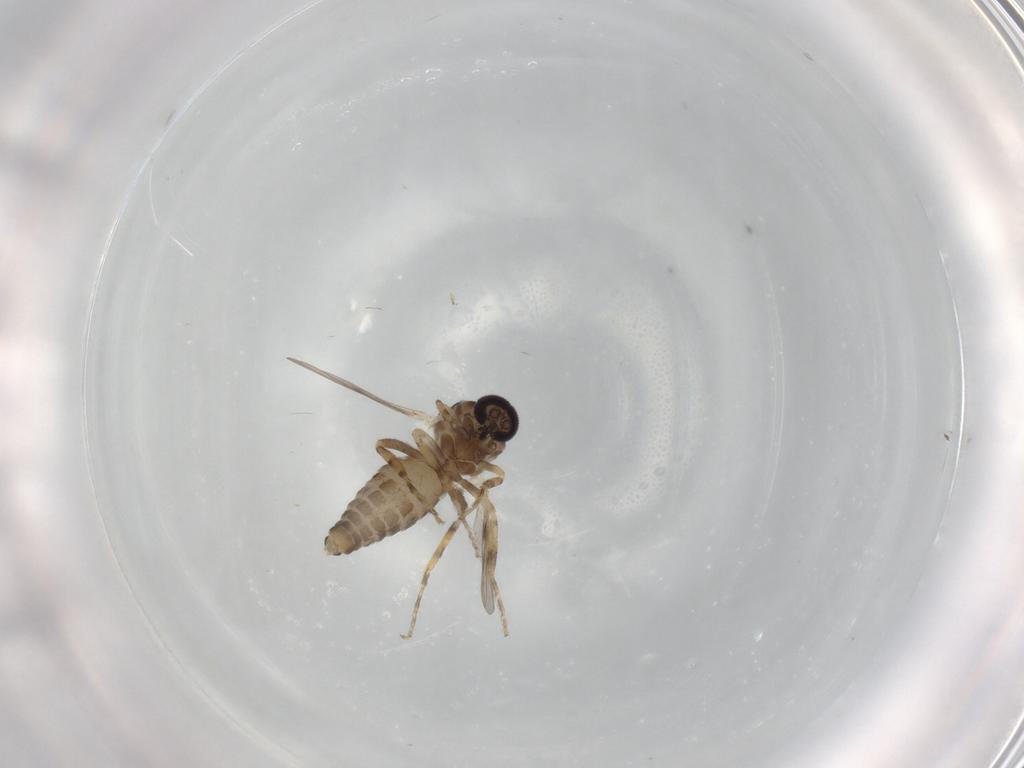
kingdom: Animalia
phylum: Arthropoda
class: Insecta
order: Diptera
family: Ceratopogonidae
